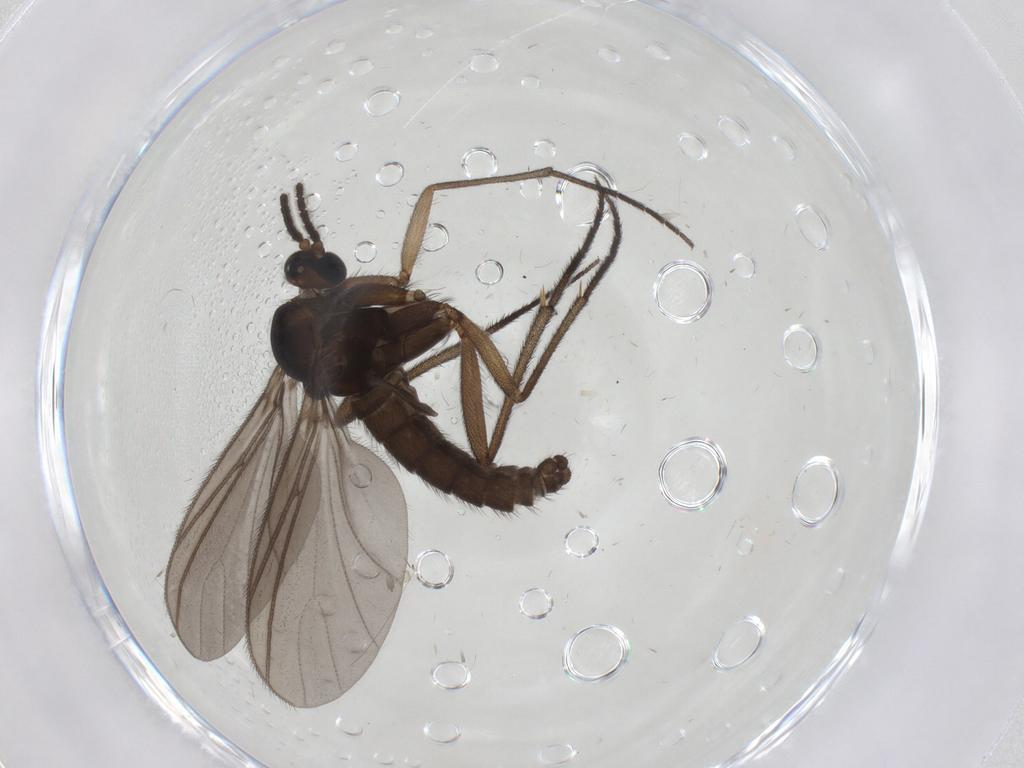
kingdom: Animalia
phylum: Arthropoda
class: Insecta
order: Diptera
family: Sciaridae
